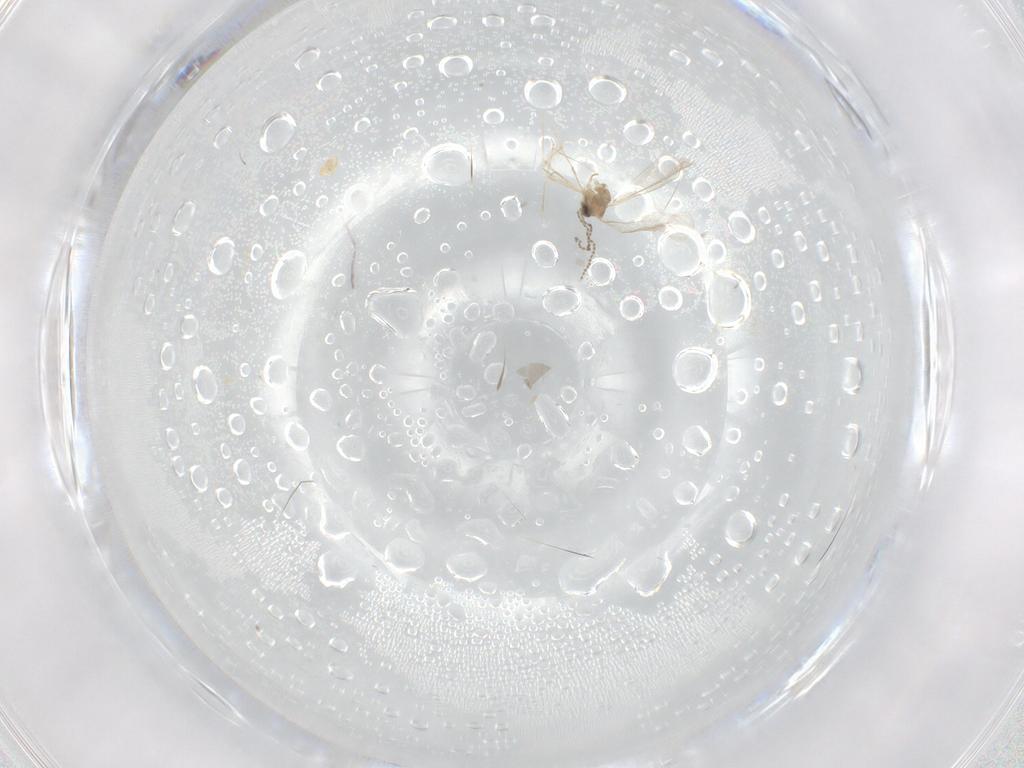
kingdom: Animalia
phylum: Arthropoda
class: Insecta
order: Diptera
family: Cecidomyiidae
